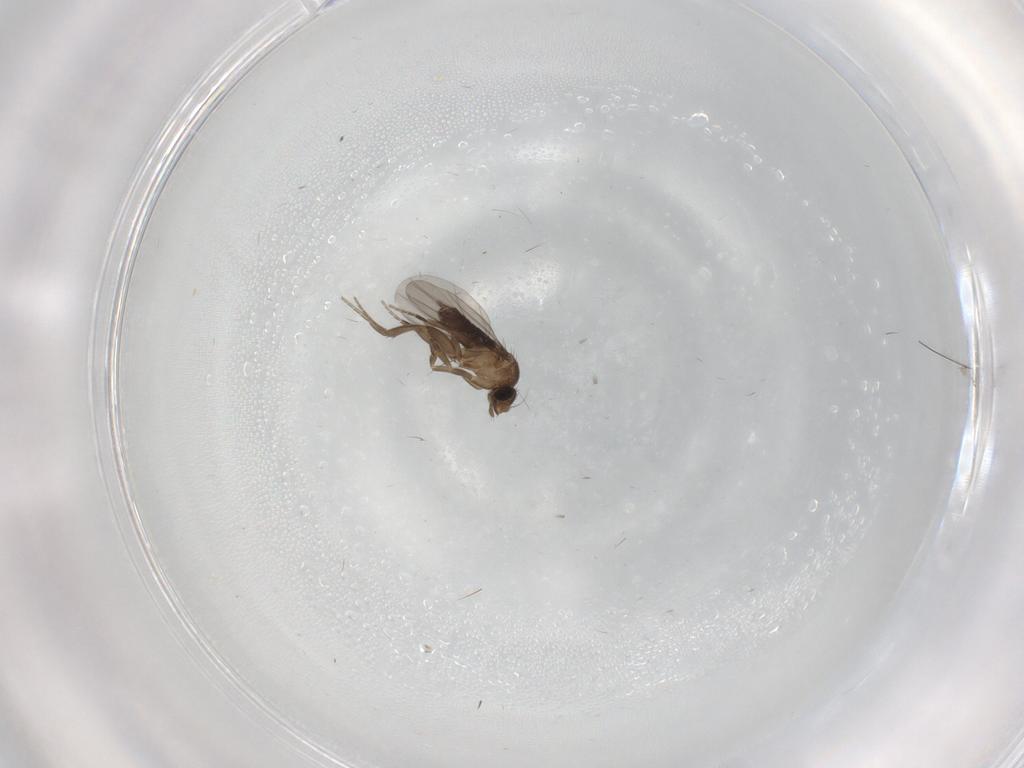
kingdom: Animalia
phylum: Arthropoda
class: Insecta
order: Diptera
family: Phoridae
